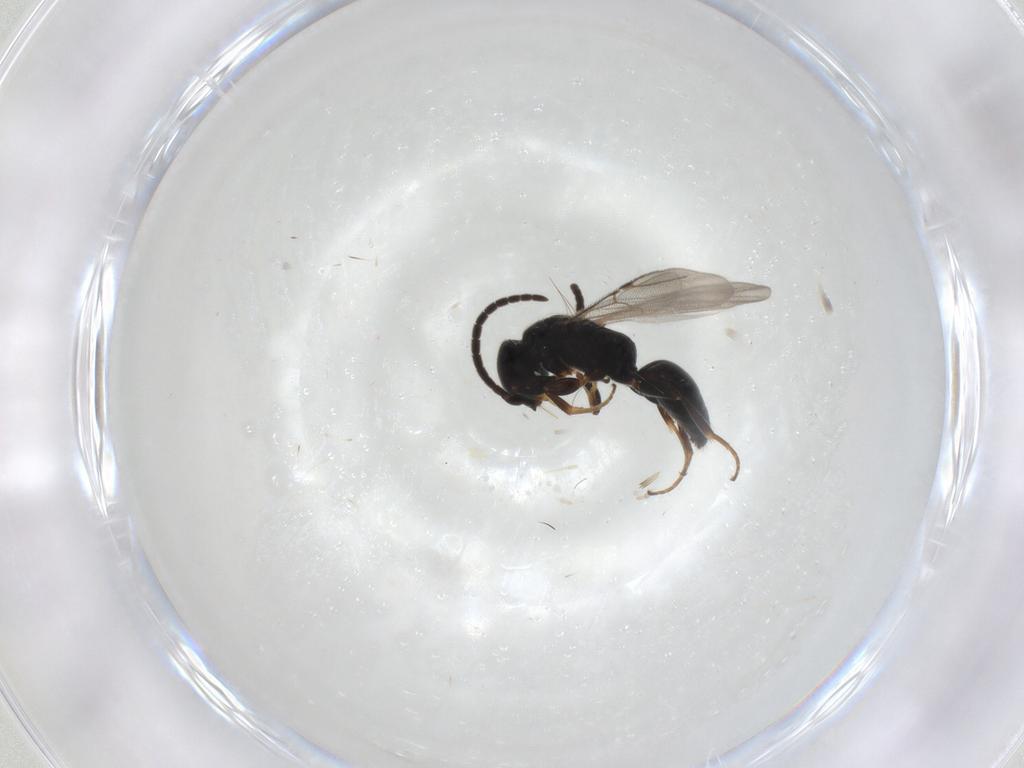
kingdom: Animalia
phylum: Arthropoda
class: Insecta
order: Hymenoptera
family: Bethylidae
